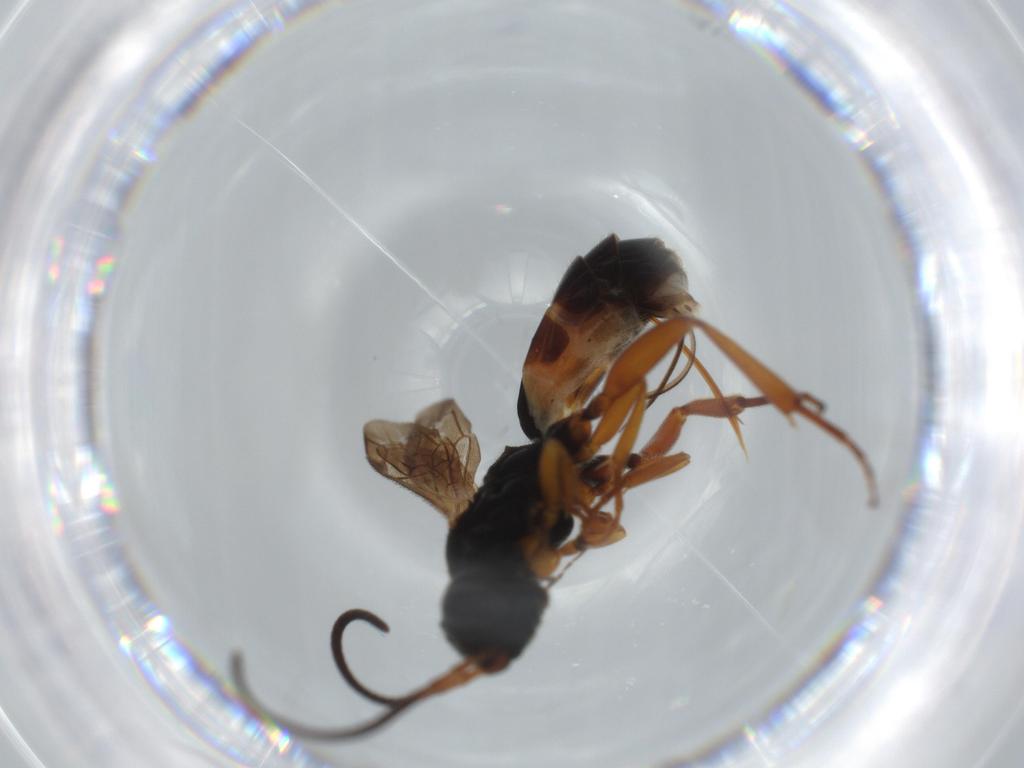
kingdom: Animalia
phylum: Arthropoda
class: Insecta
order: Hymenoptera
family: Ichneumonidae
